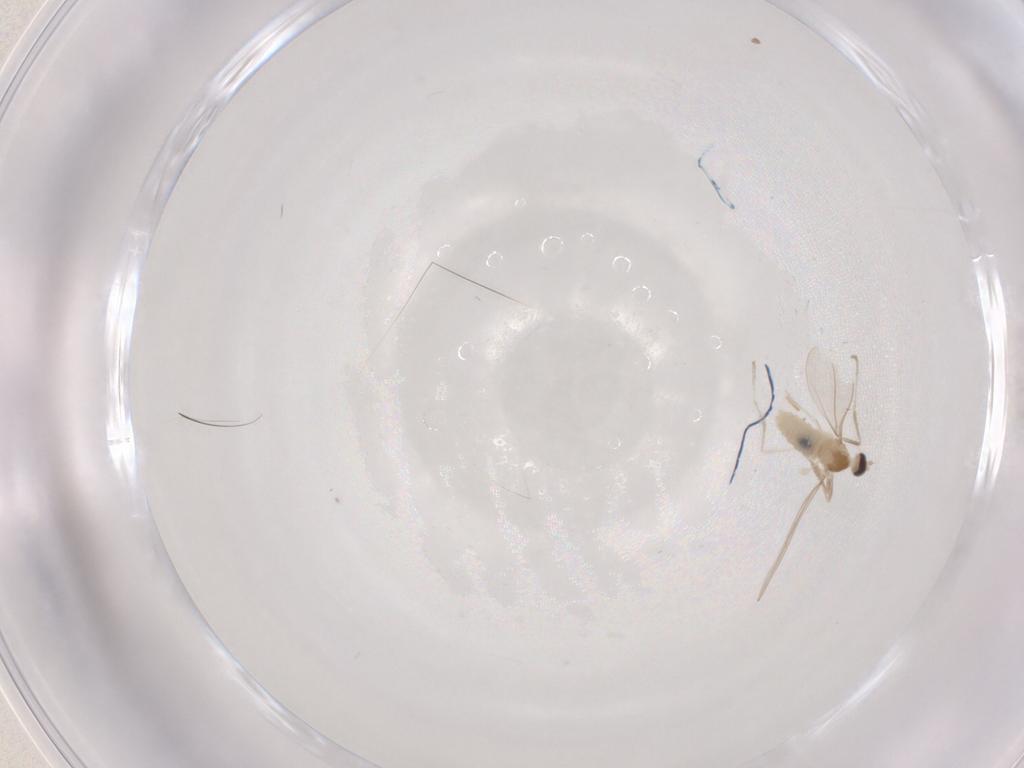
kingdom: Animalia
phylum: Arthropoda
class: Insecta
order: Diptera
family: Cecidomyiidae
